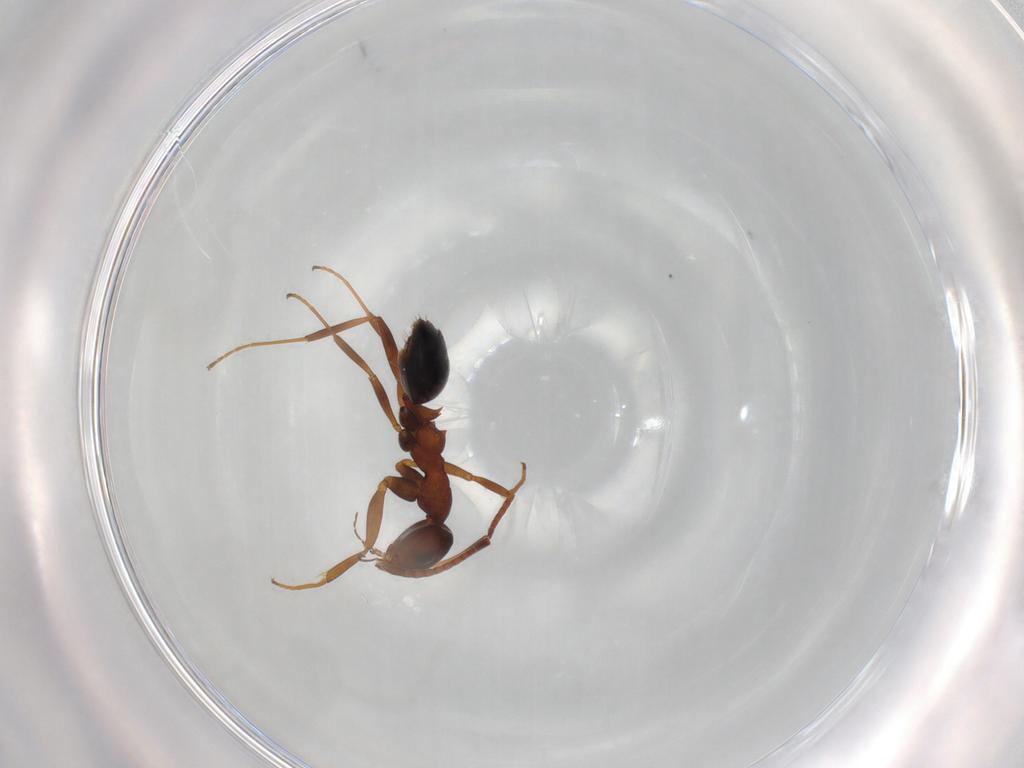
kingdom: Animalia
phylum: Arthropoda
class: Insecta
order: Hymenoptera
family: Formicidae
